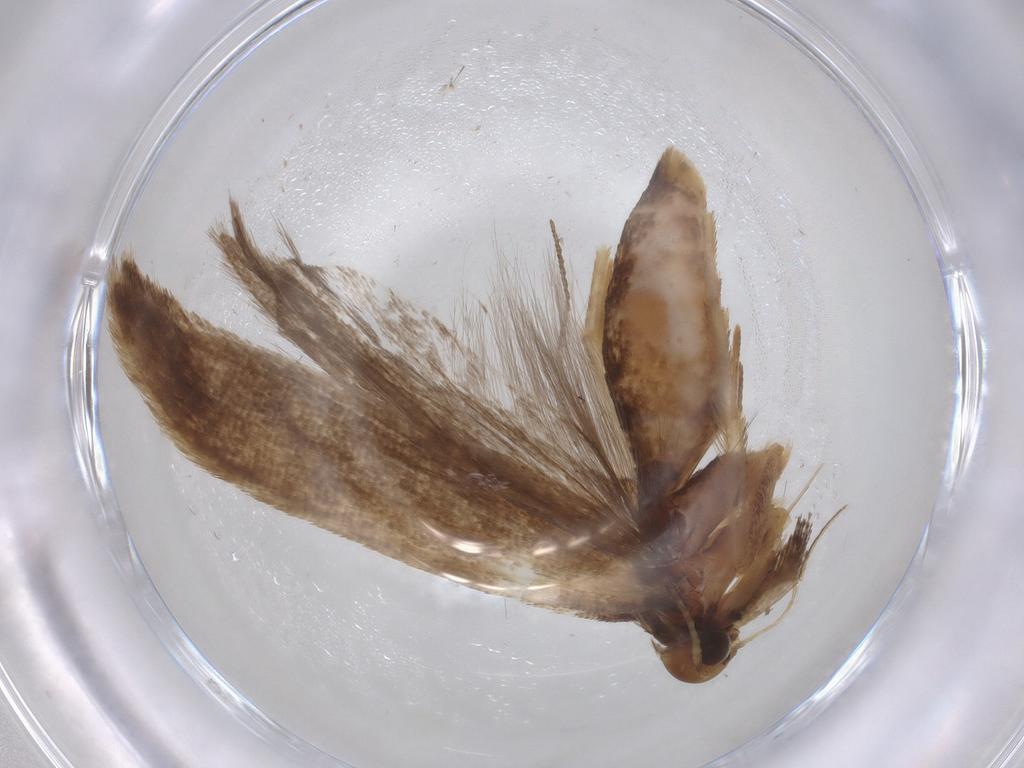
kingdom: Animalia
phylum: Arthropoda
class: Insecta
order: Lepidoptera
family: Gelechiidae
